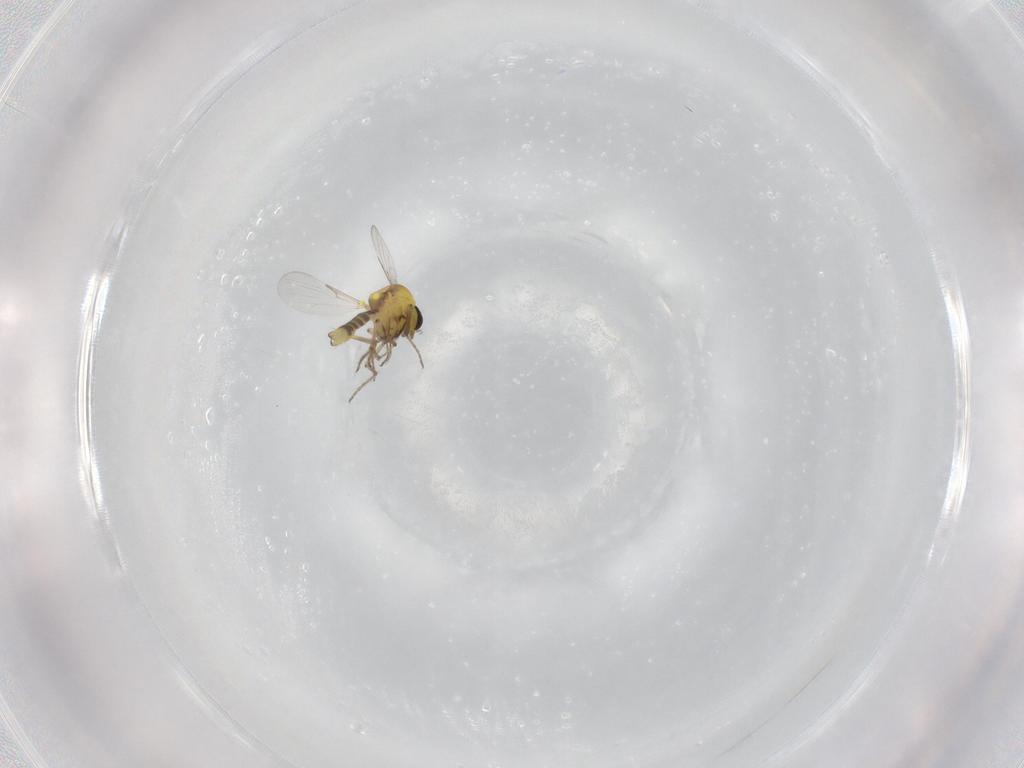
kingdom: Animalia
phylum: Arthropoda
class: Insecta
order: Diptera
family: Ceratopogonidae
